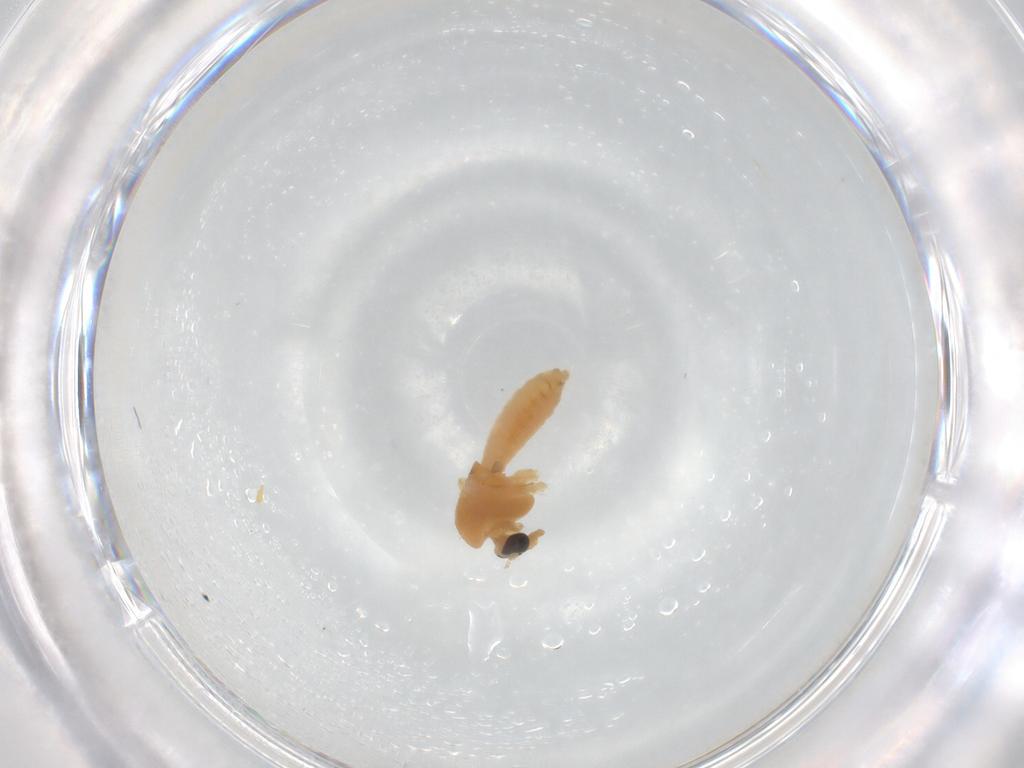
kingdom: Animalia
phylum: Arthropoda
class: Insecta
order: Diptera
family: Chironomidae
